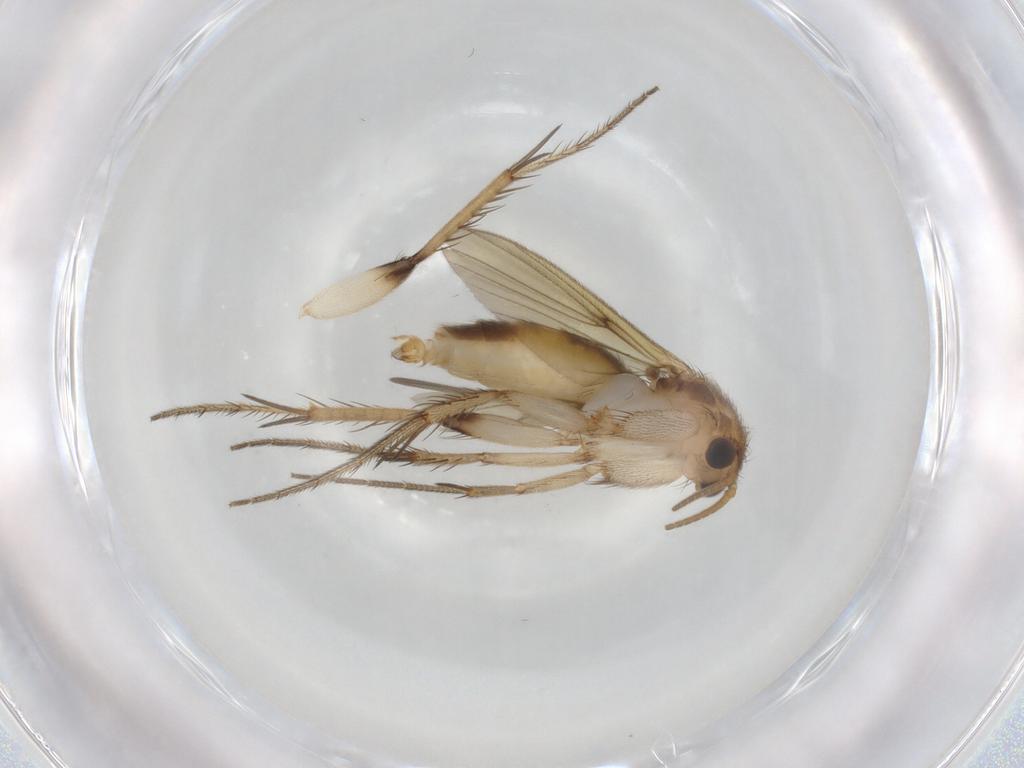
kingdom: Animalia
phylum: Arthropoda
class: Insecta
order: Diptera
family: Mycetophilidae
